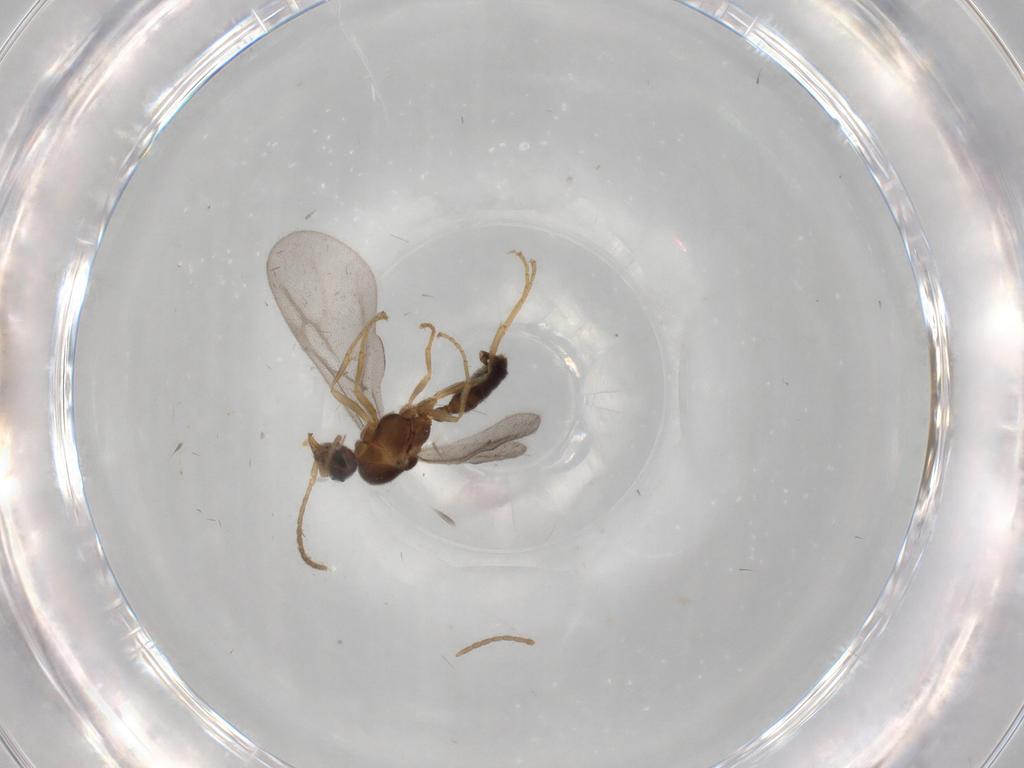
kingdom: Animalia
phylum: Arthropoda
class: Insecta
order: Hymenoptera
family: Formicidae
